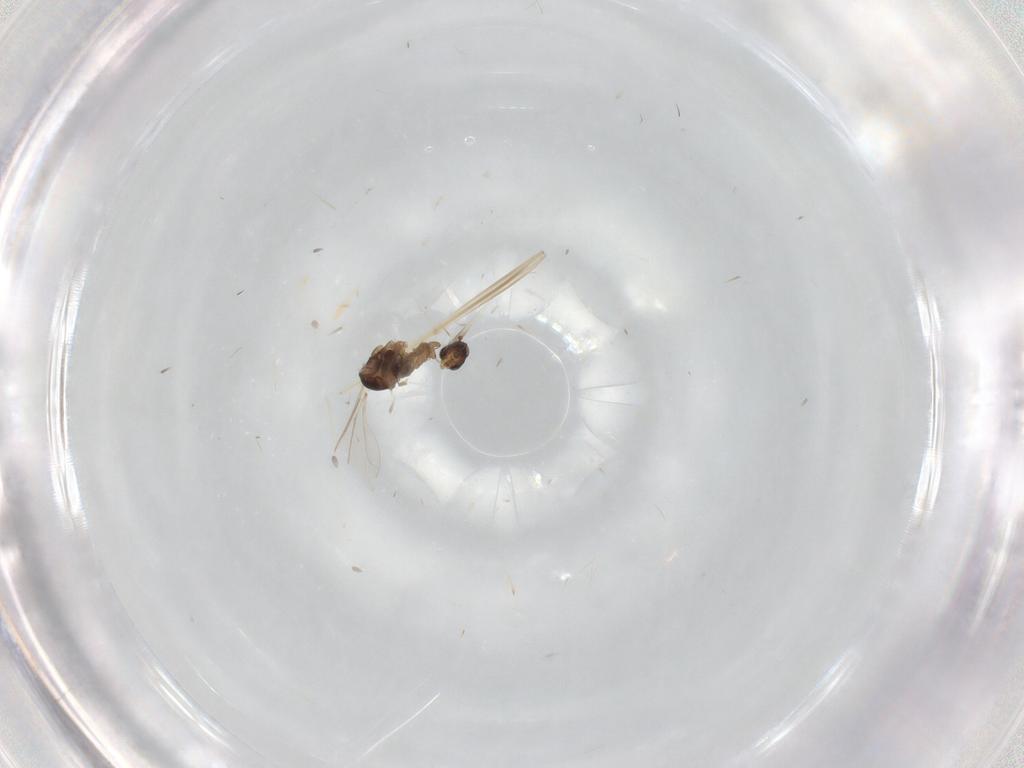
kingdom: Animalia
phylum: Arthropoda
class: Insecta
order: Diptera
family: Cecidomyiidae
